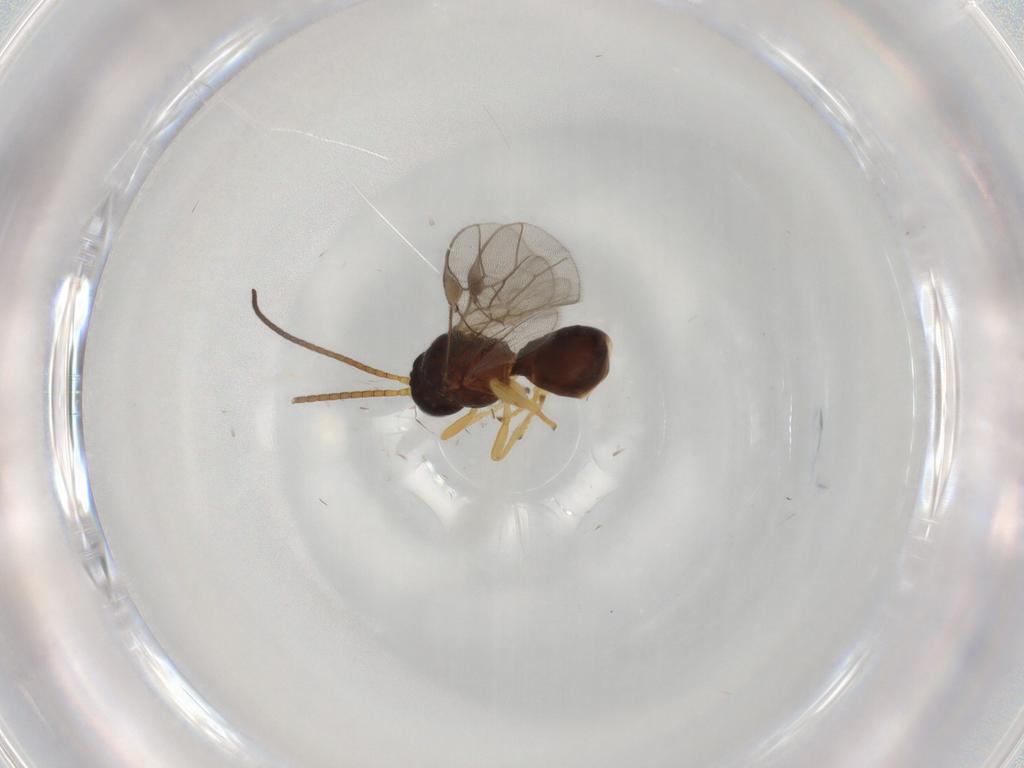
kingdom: Animalia
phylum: Arthropoda
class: Insecta
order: Hymenoptera
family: Braconidae
